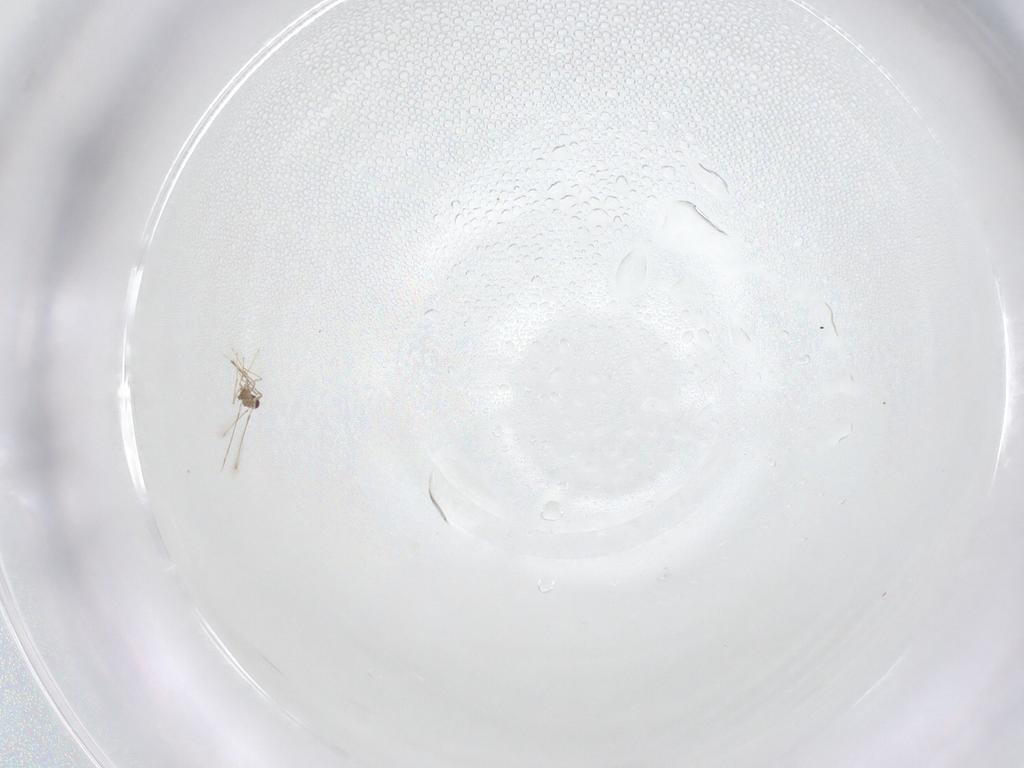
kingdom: Animalia
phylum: Arthropoda
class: Insecta
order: Hymenoptera
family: Mymaridae
